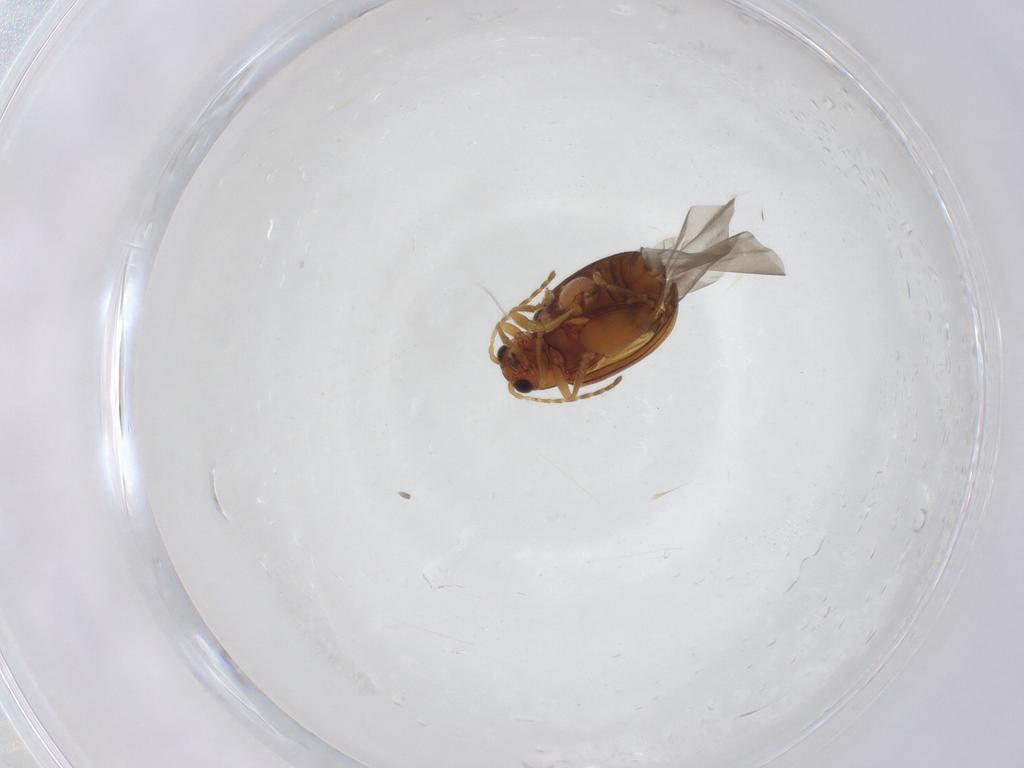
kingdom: Animalia
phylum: Arthropoda
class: Insecta
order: Coleoptera
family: Chrysomelidae
